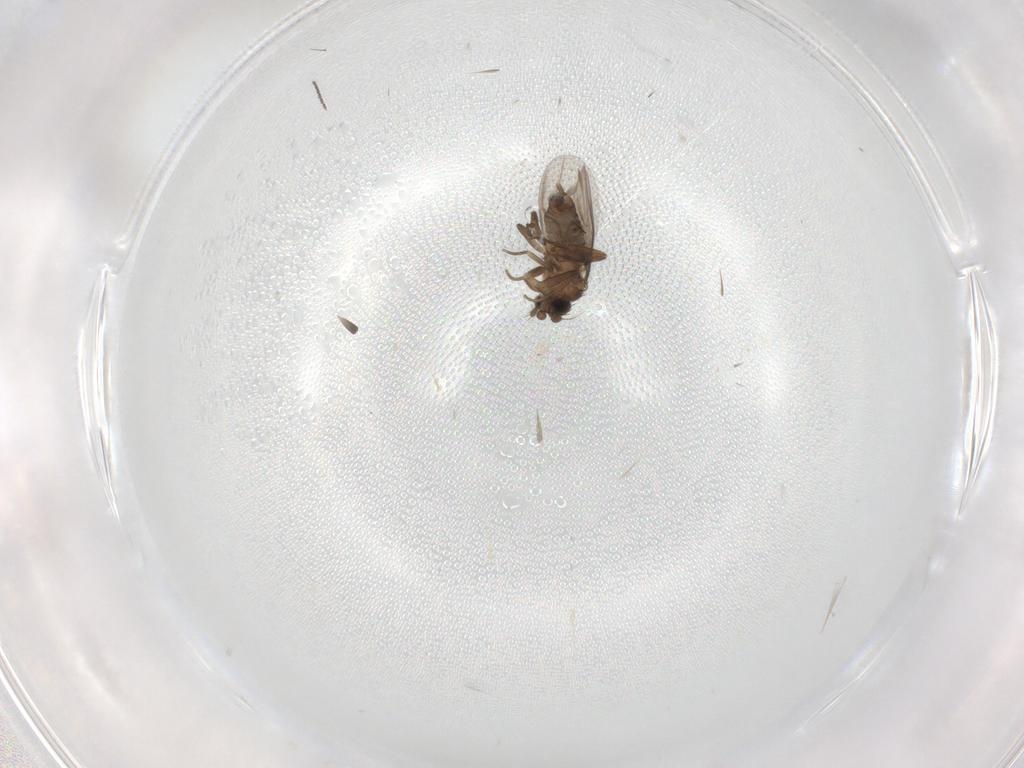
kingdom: Animalia
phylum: Arthropoda
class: Insecta
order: Diptera
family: Phoridae
